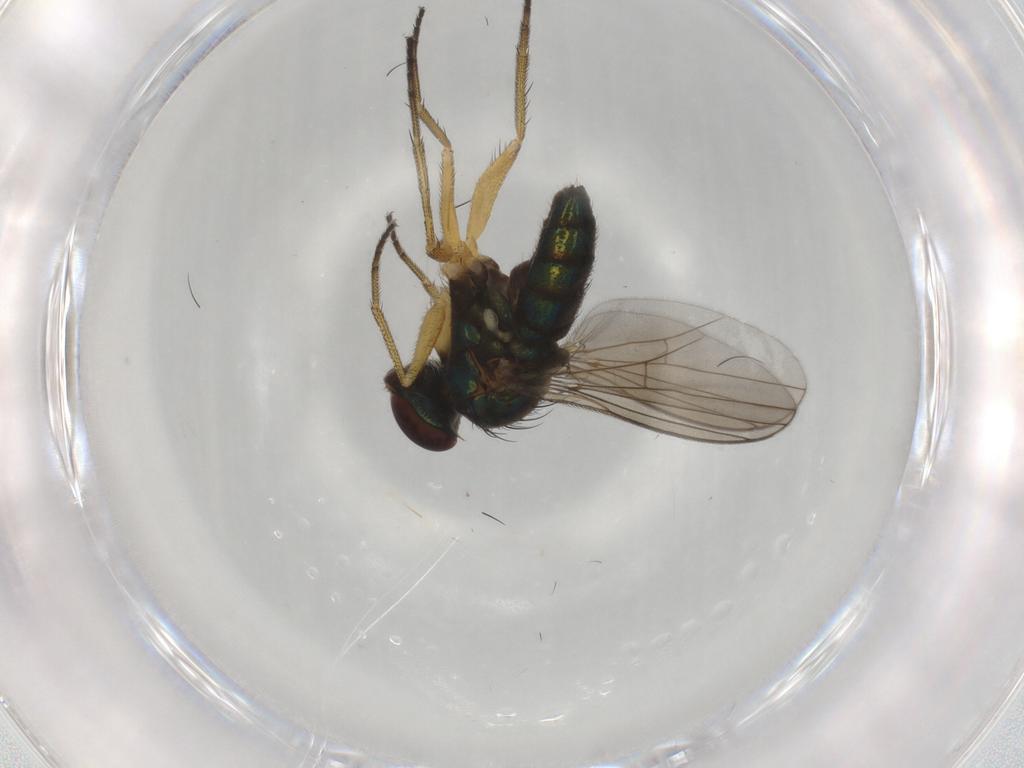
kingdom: Animalia
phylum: Arthropoda
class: Insecta
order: Diptera
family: Dolichopodidae
